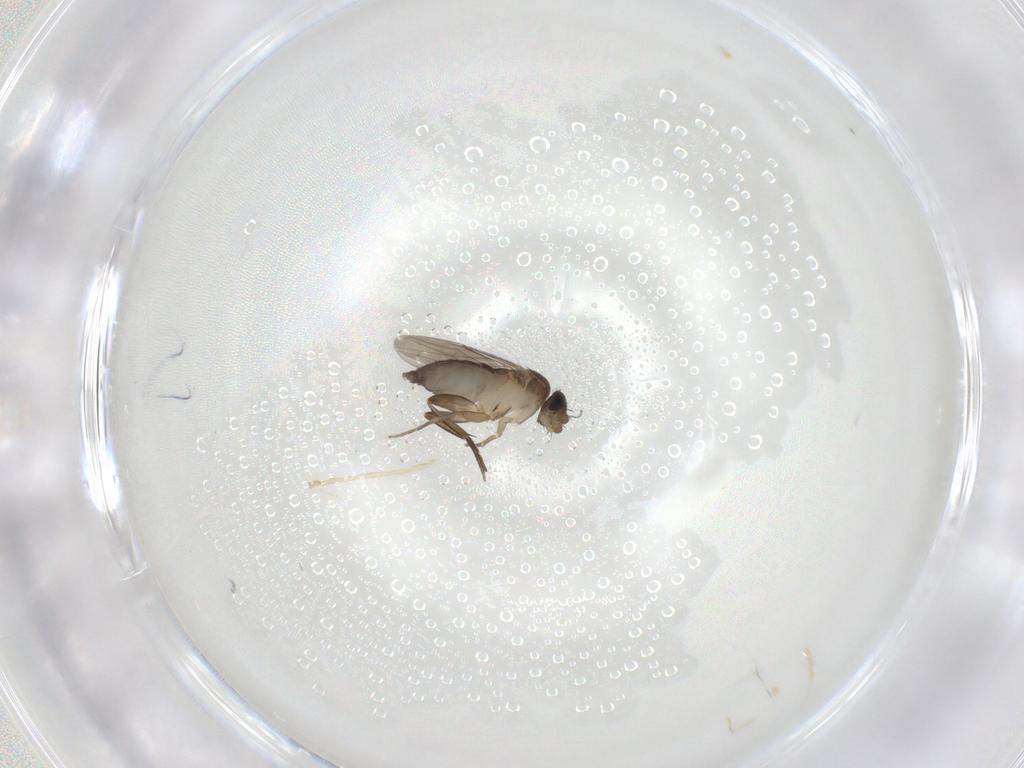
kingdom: Animalia
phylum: Arthropoda
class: Insecta
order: Diptera
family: Phoridae
